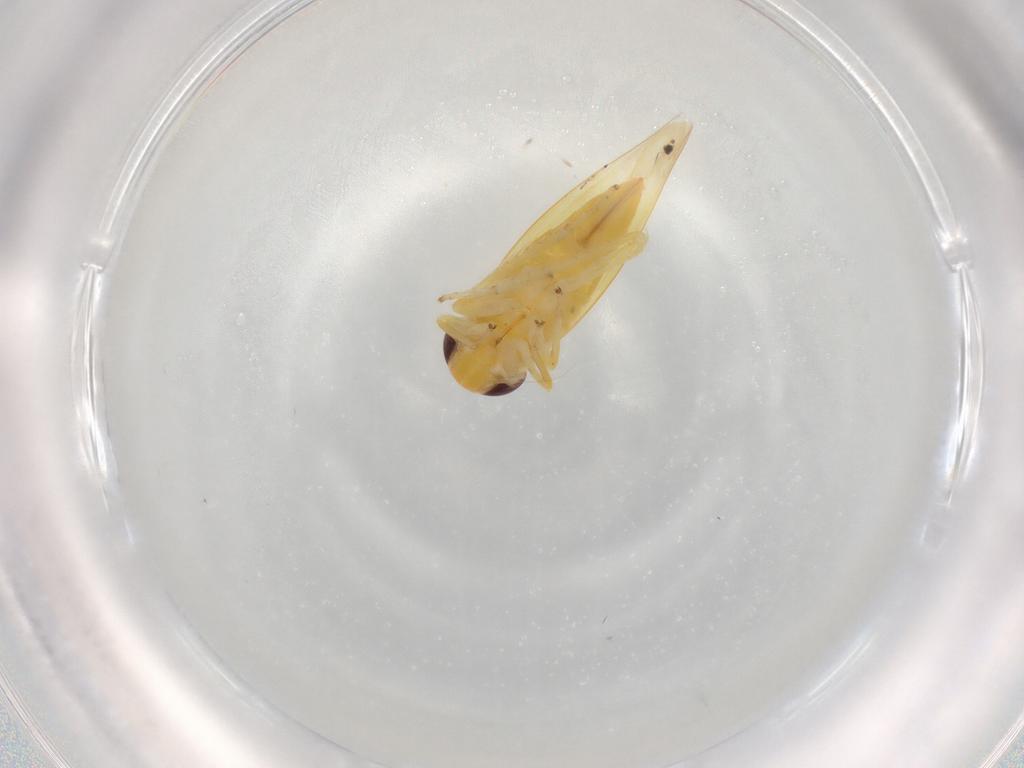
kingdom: Animalia
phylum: Arthropoda
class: Insecta
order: Hemiptera
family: Cicadellidae
